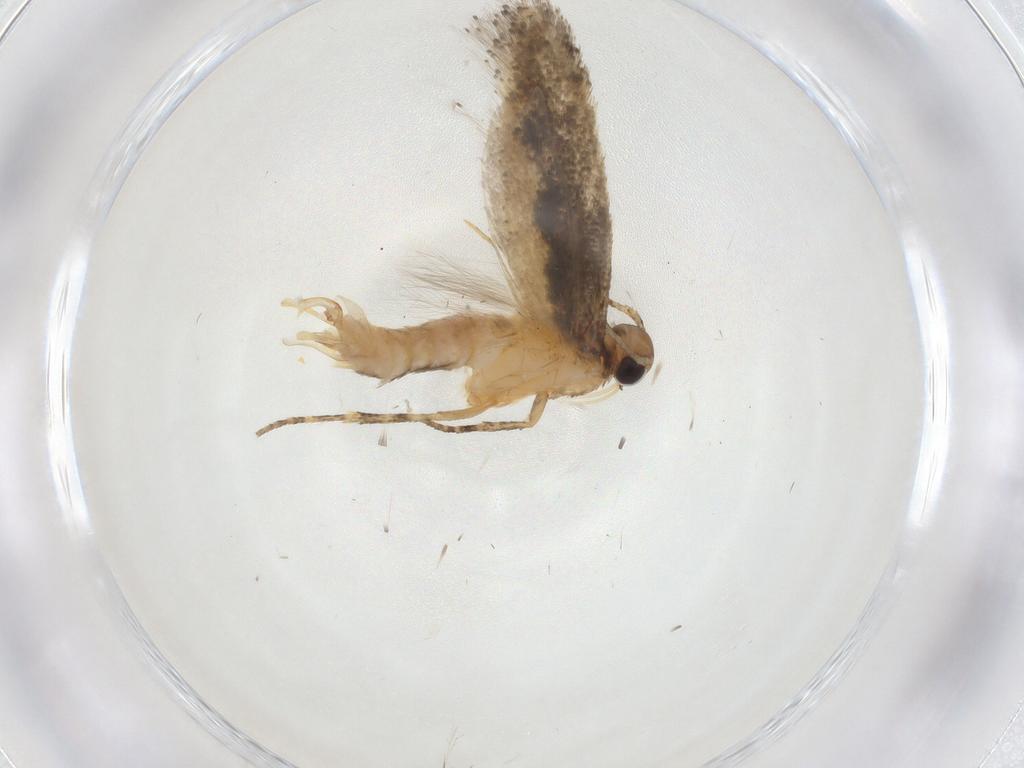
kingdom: Animalia
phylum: Arthropoda
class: Insecta
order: Lepidoptera
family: Gelechiidae
